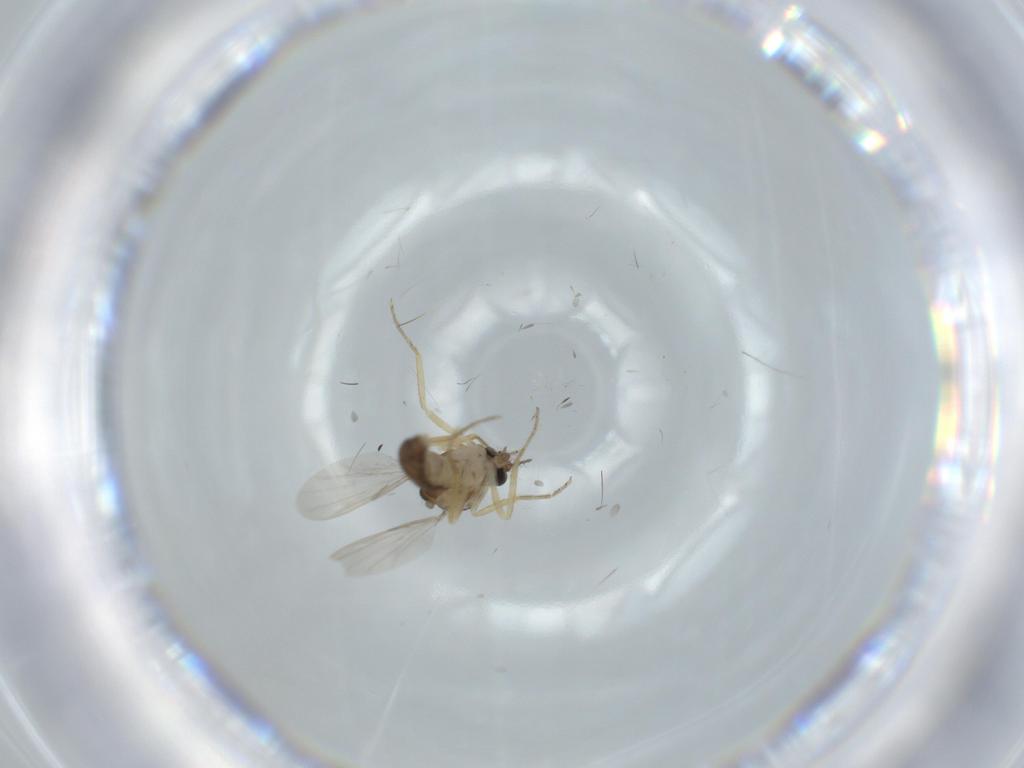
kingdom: Animalia
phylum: Arthropoda
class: Insecta
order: Diptera
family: Ceratopogonidae
